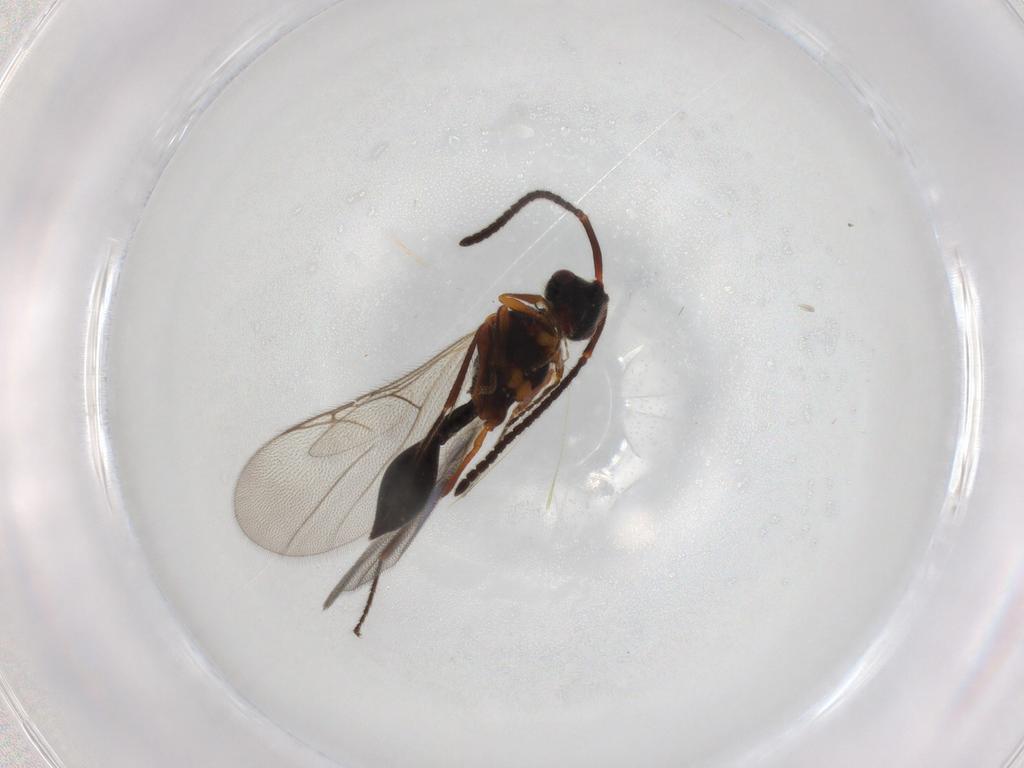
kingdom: Animalia
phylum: Arthropoda
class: Insecta
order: Hymenoptera
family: Diapriidae
